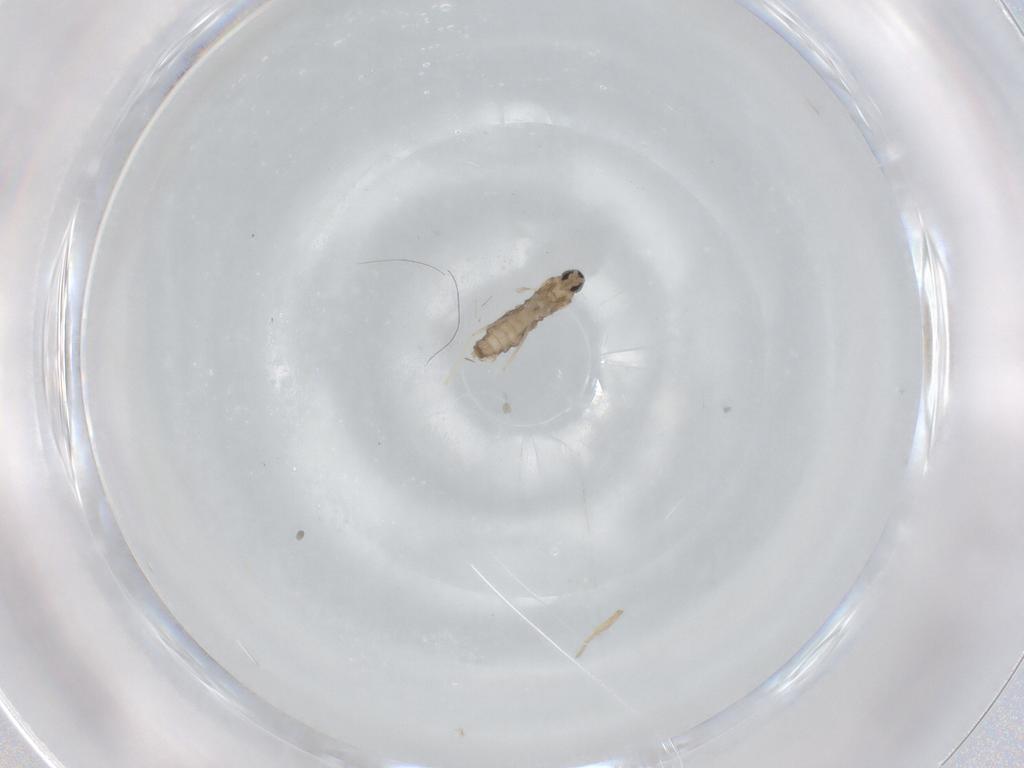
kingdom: Animalia
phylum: Arthropoda
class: Insecta
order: Diptera
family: Cecidomyiidae
